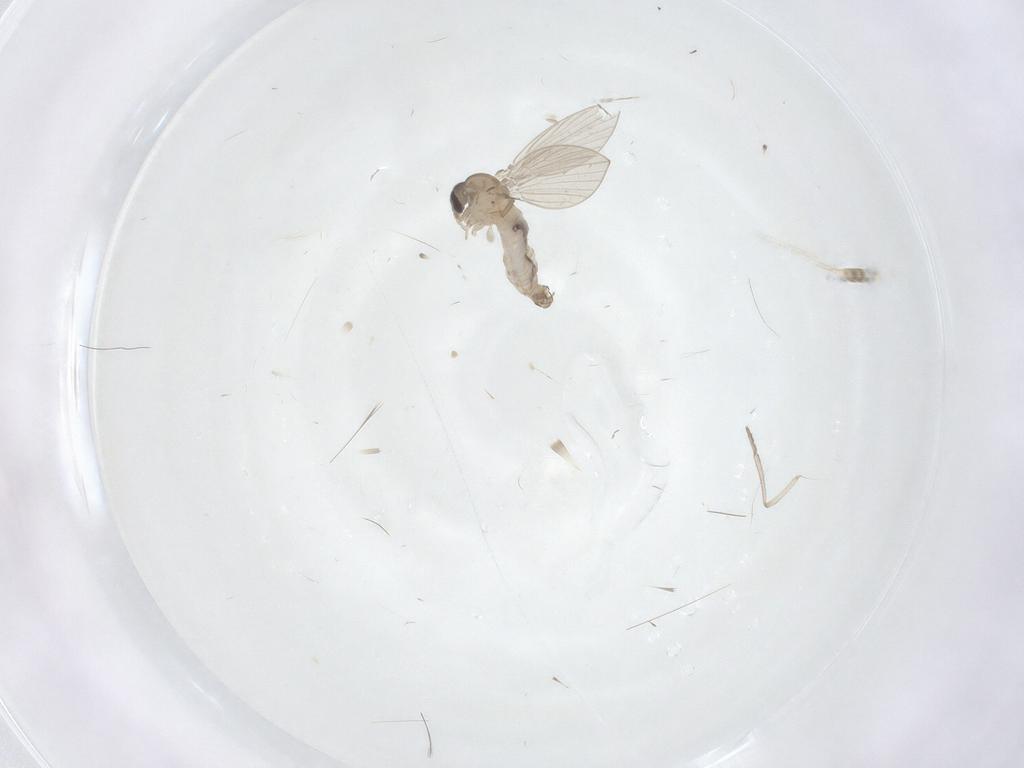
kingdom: Animalia
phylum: Arthropoda
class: Insecta
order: Diptera
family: Psychodidae
